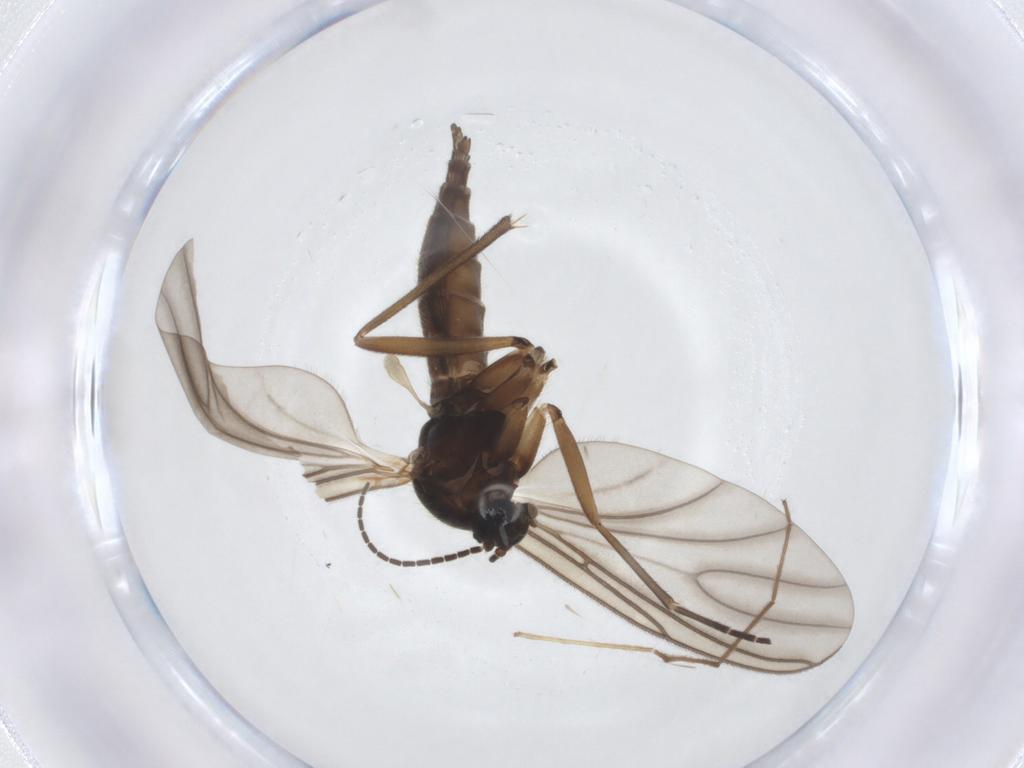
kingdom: Animalia
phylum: Arthropoda
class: Insecta
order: Diptera
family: Sciaridae
